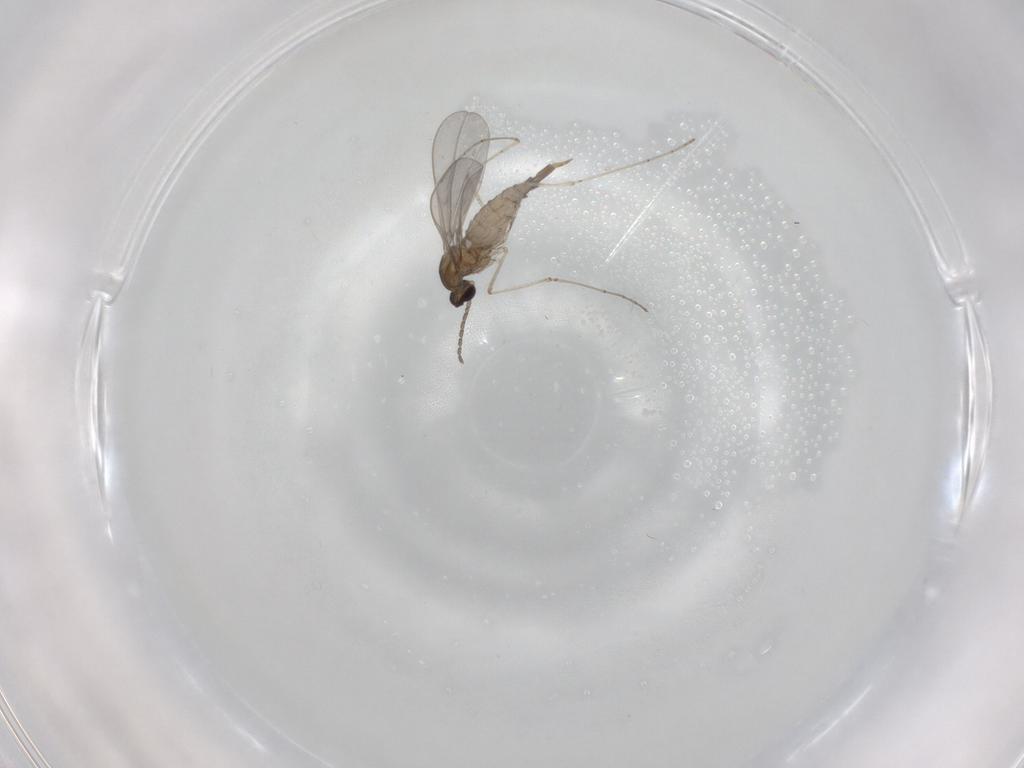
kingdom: Animalia
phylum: Arthropoda
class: Insecta
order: Diptera
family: Cecidomyiidae
